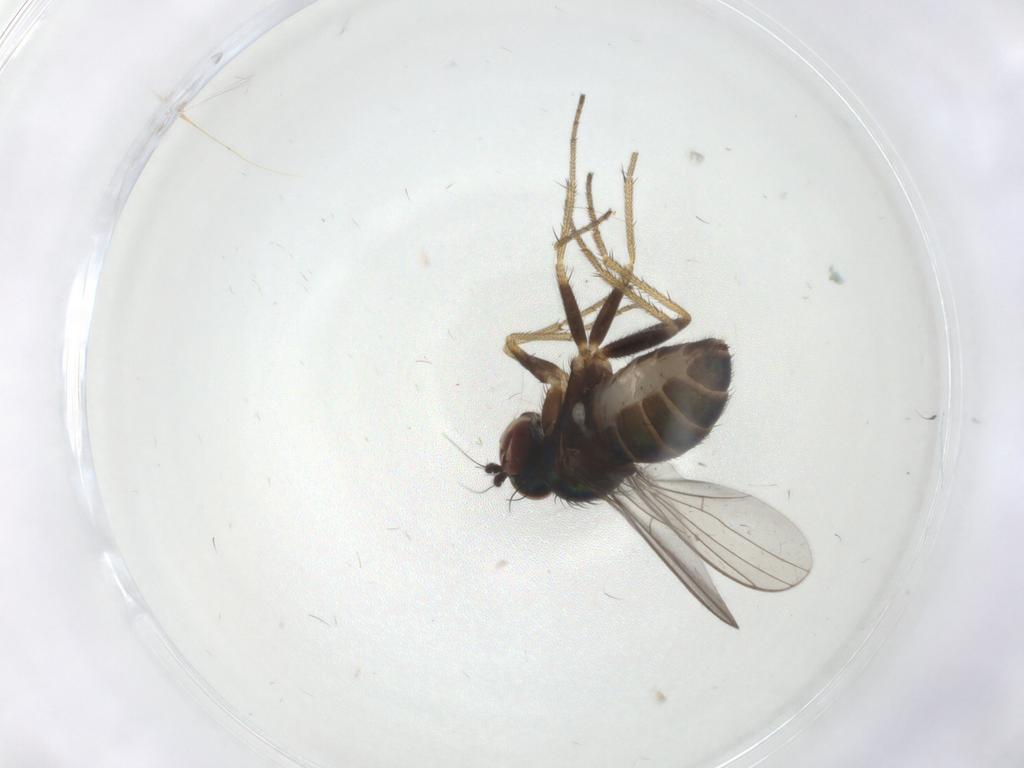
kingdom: Animalia
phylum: Arthropoda
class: Insecta
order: Diptera
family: Dolichopodidae
